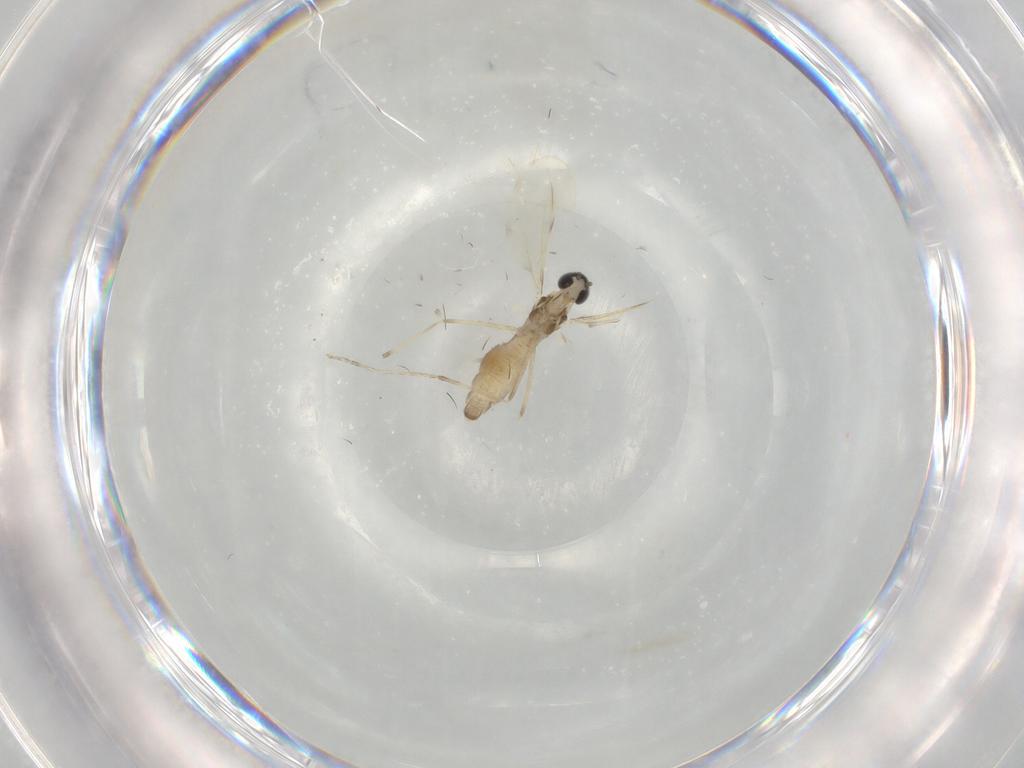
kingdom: Animalia
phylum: Arthropoda
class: Insecta
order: Diptera
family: Cecidomyiidae
